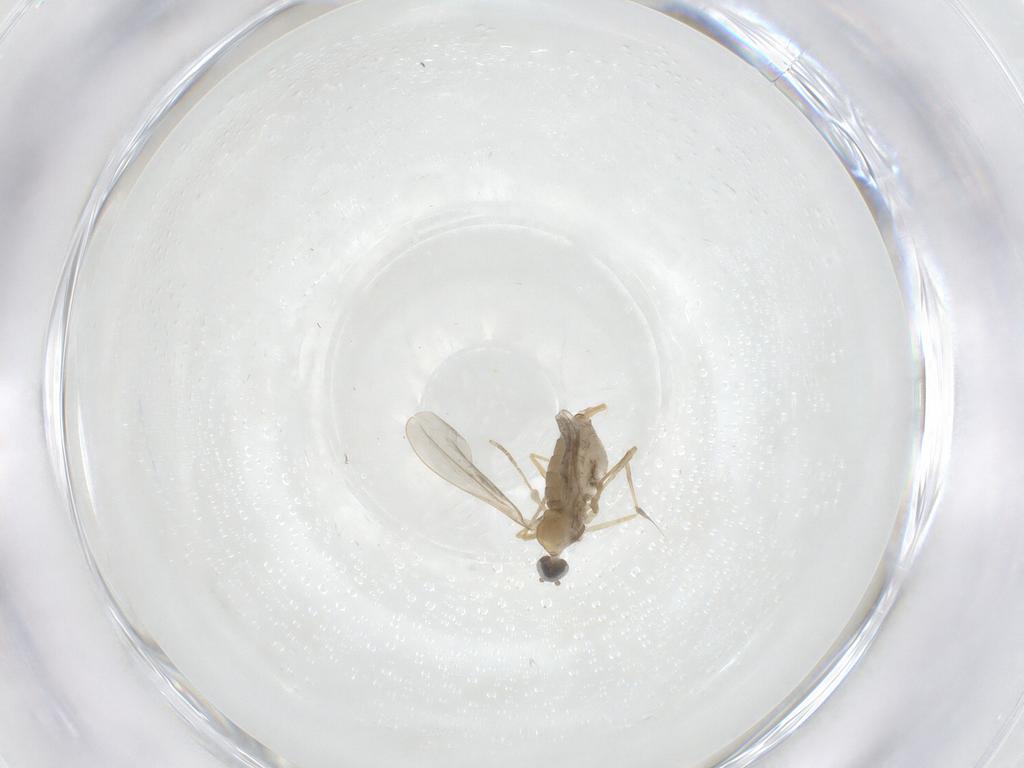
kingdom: Animalia
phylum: Arthropoda
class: Insecta
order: Diptera
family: Cecidomyiidae
